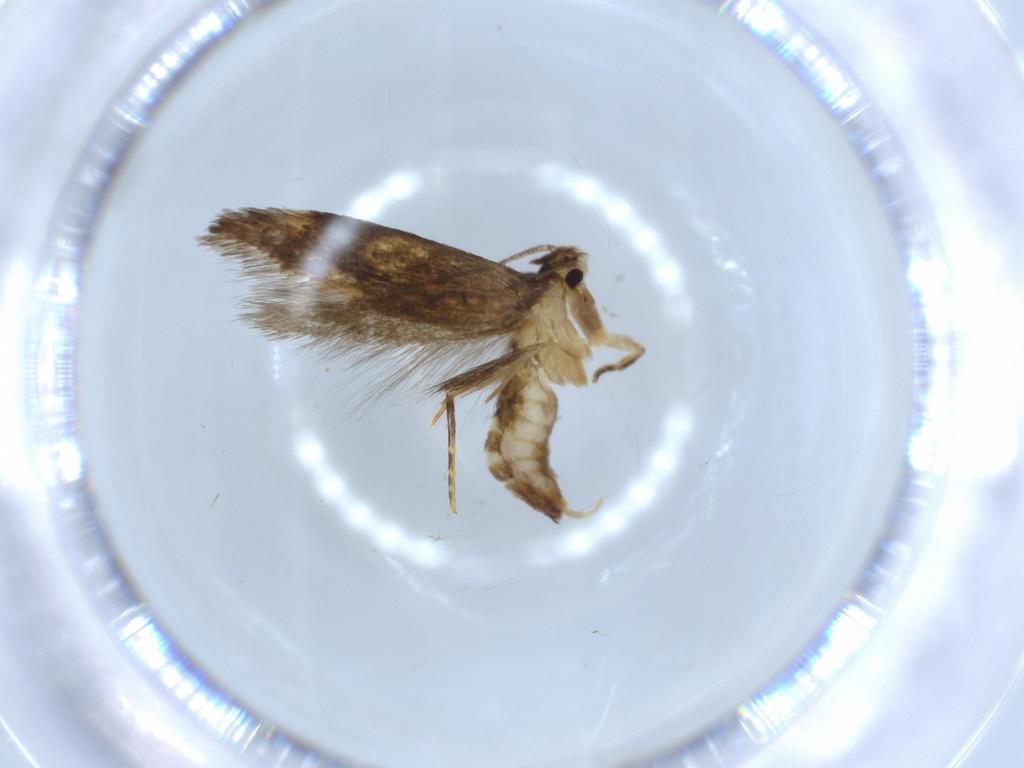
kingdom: Animalia
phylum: Arthropoda
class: Insecta
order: Lepidoptera
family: Tineidae
